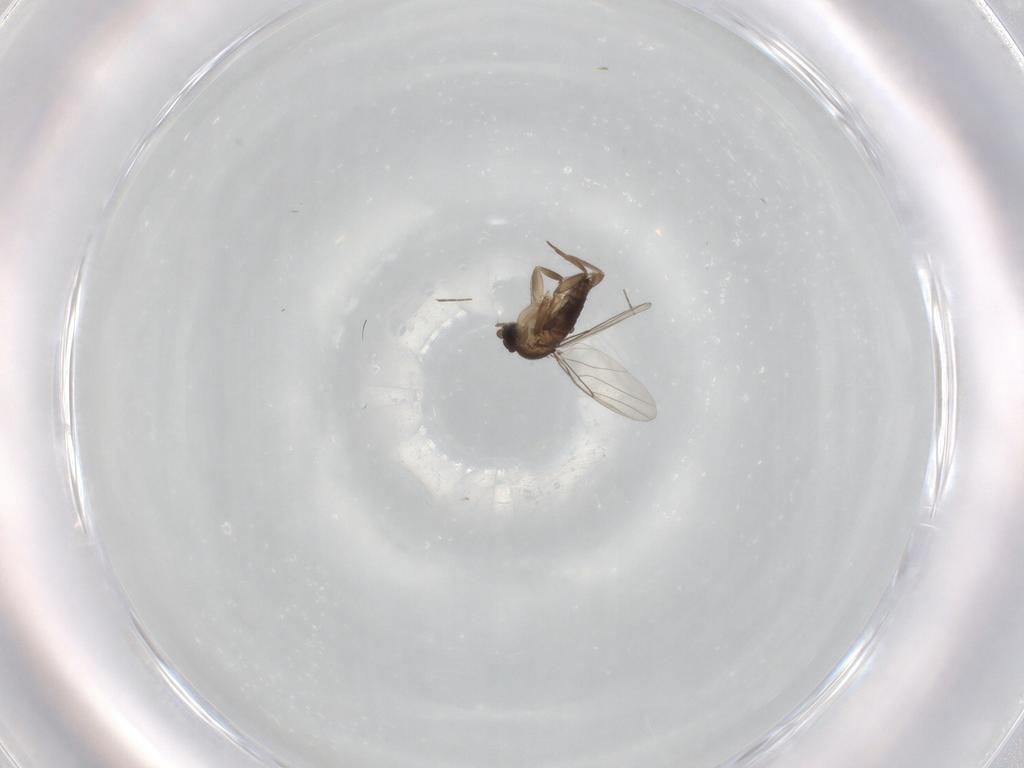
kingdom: Animalia
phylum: Arthropoda
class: Insecta
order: Diptera
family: Phoridae
